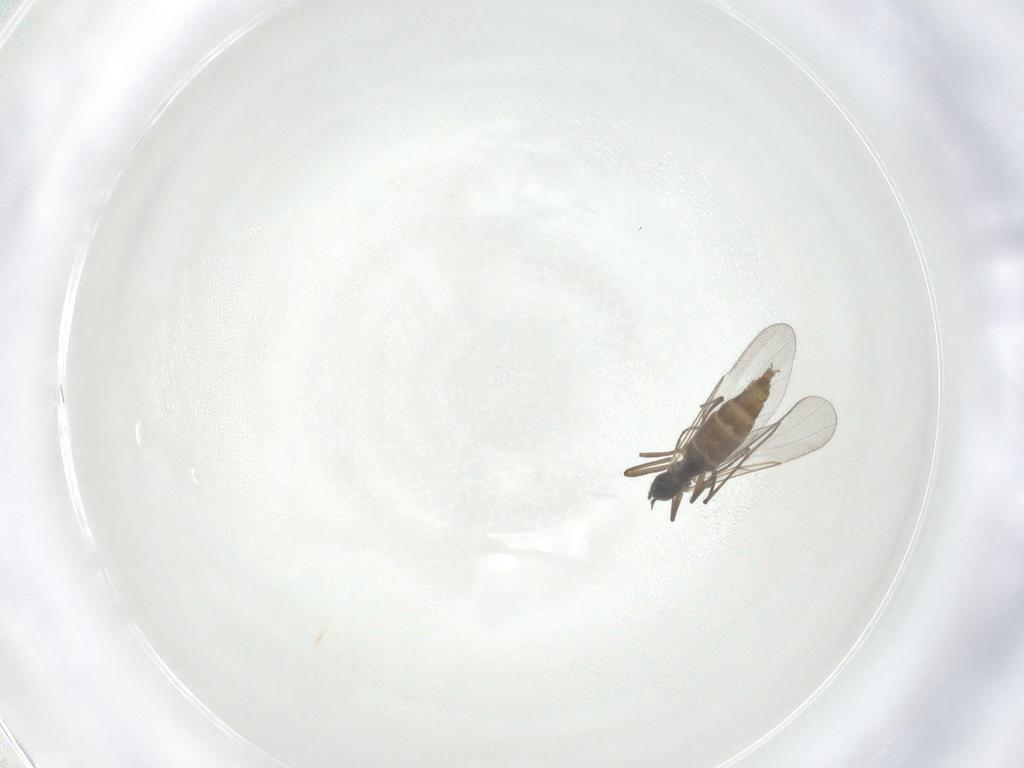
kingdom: Animalia
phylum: Arthropoda
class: Insecta
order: Diptera
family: Cecidomyiidae
